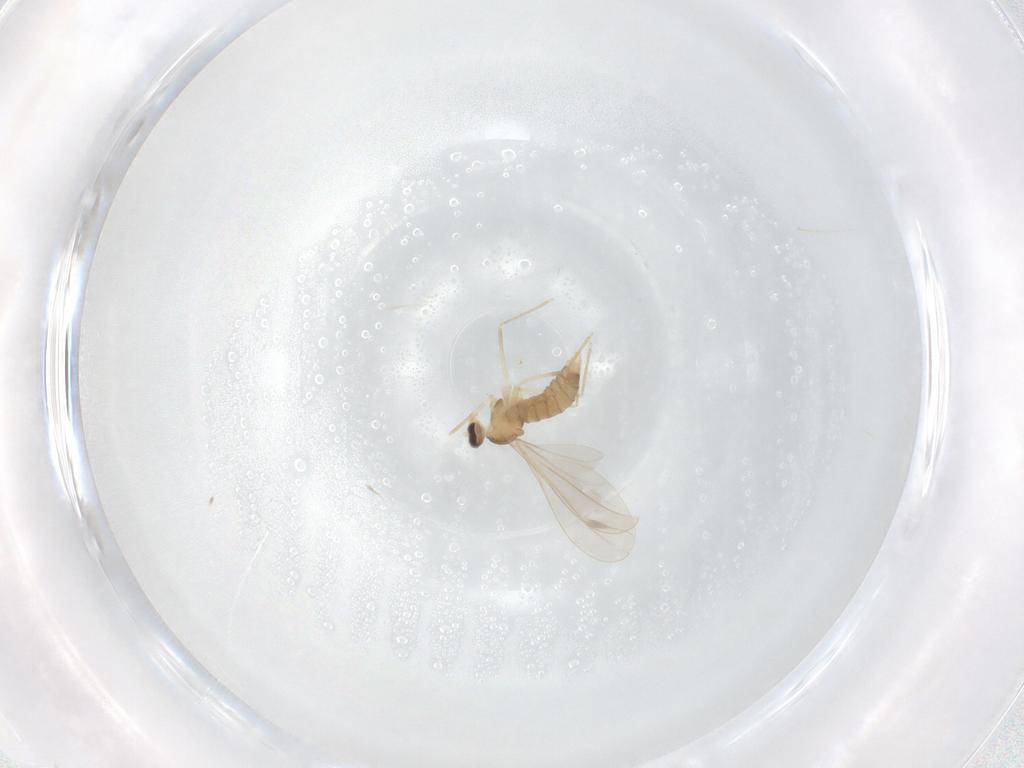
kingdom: Animalia
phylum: Arthropoda
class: Insecta
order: Diptera
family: Cecidomyiidae
